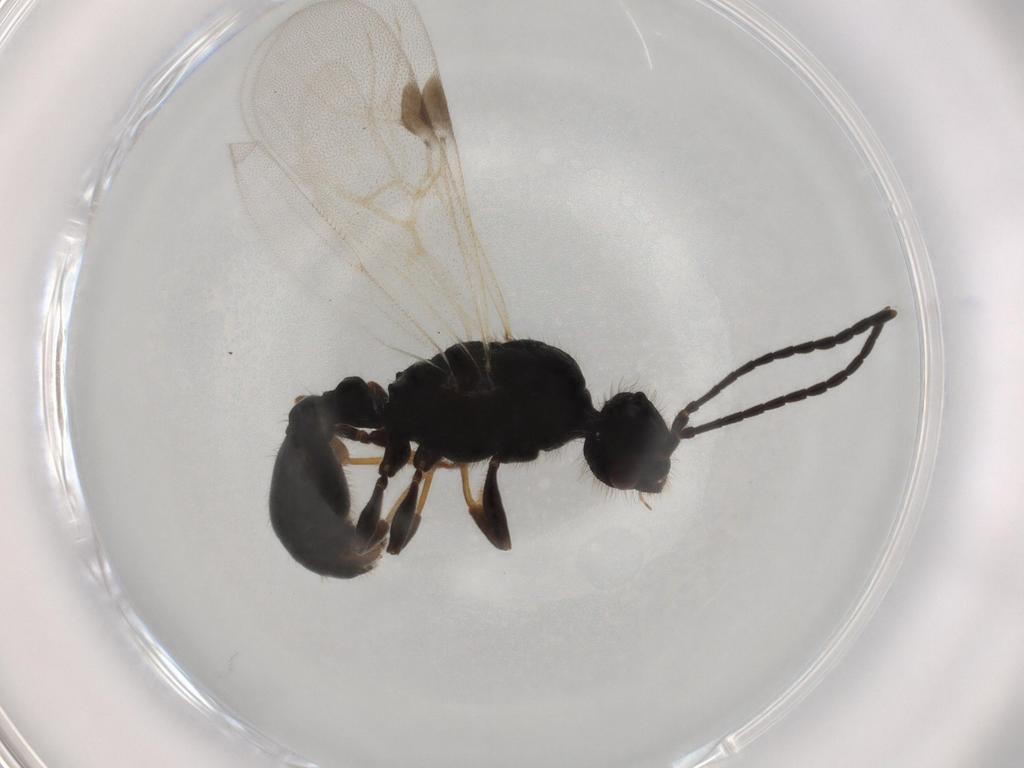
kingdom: Animalia
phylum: Arthropoda
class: Insecta
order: Hymenoptera
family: Formicidae
